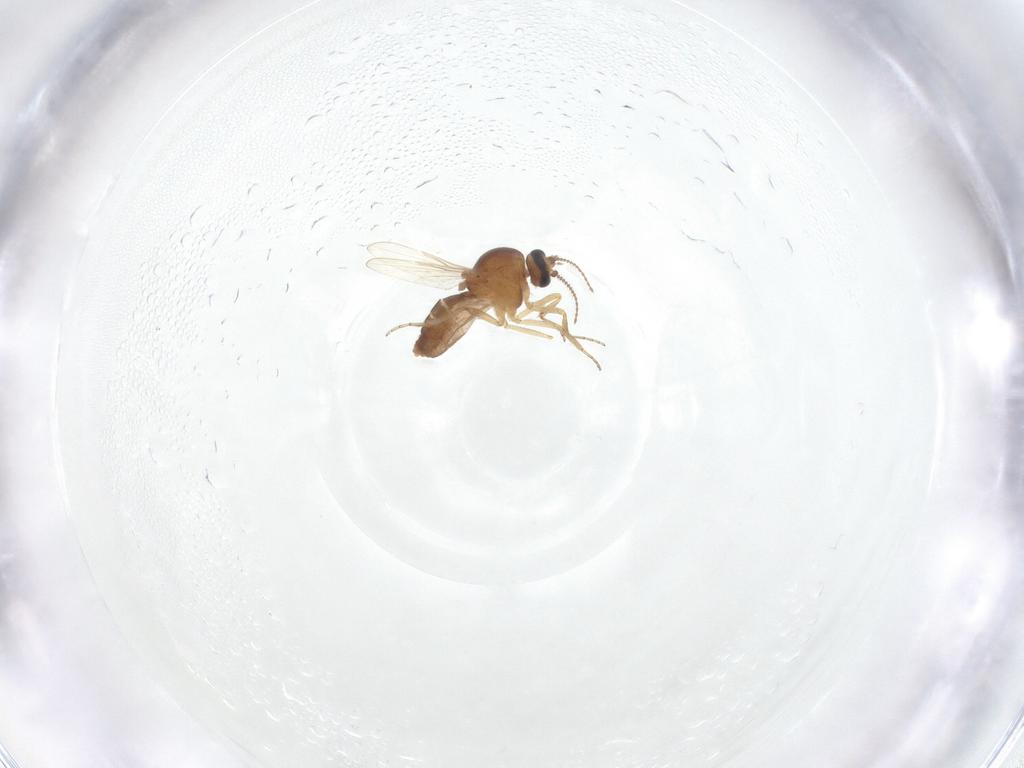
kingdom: Animalia
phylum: Arthropoda
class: Insecta
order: Diptera
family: Ceratopogonidae
